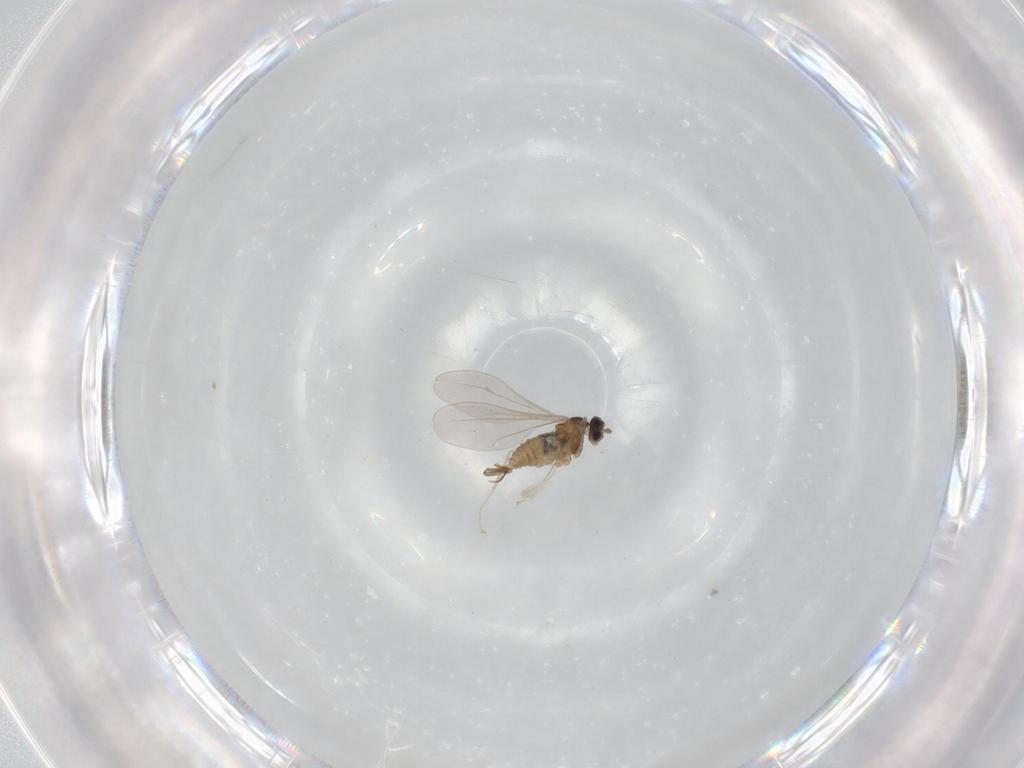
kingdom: Animalia
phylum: Arthropoda
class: Insecta
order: Diptera
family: Cecidomyiidae
